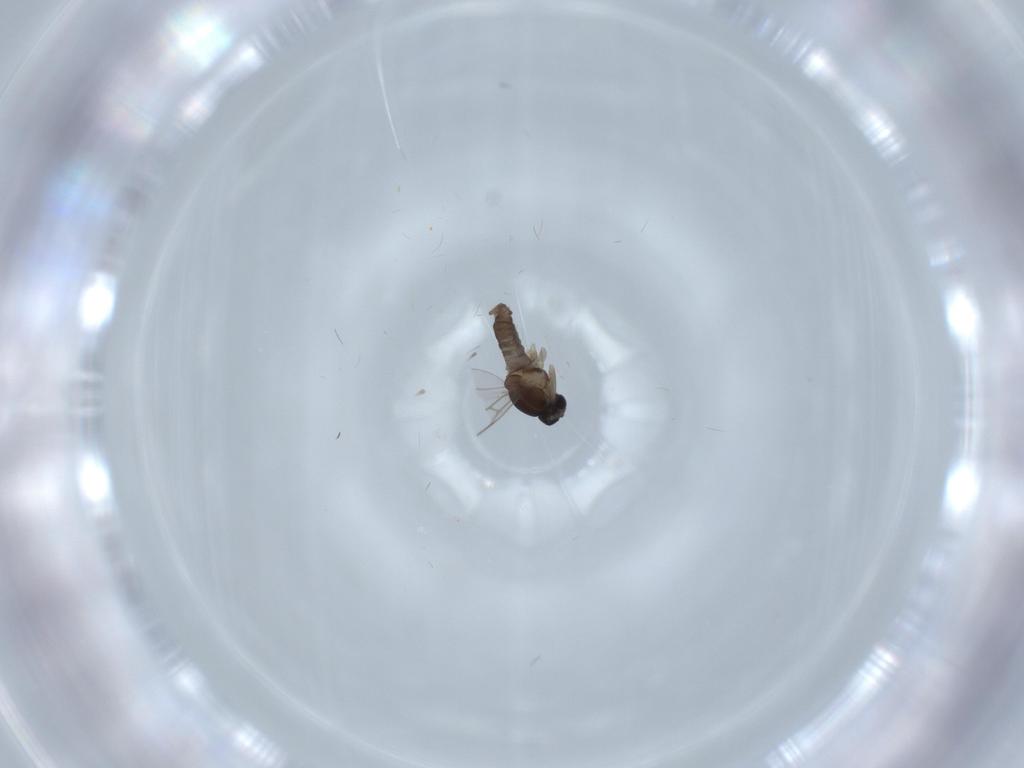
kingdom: Animalia
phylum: Arthropoda
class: Insecta
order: Diptera
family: Cecidomyiidae
